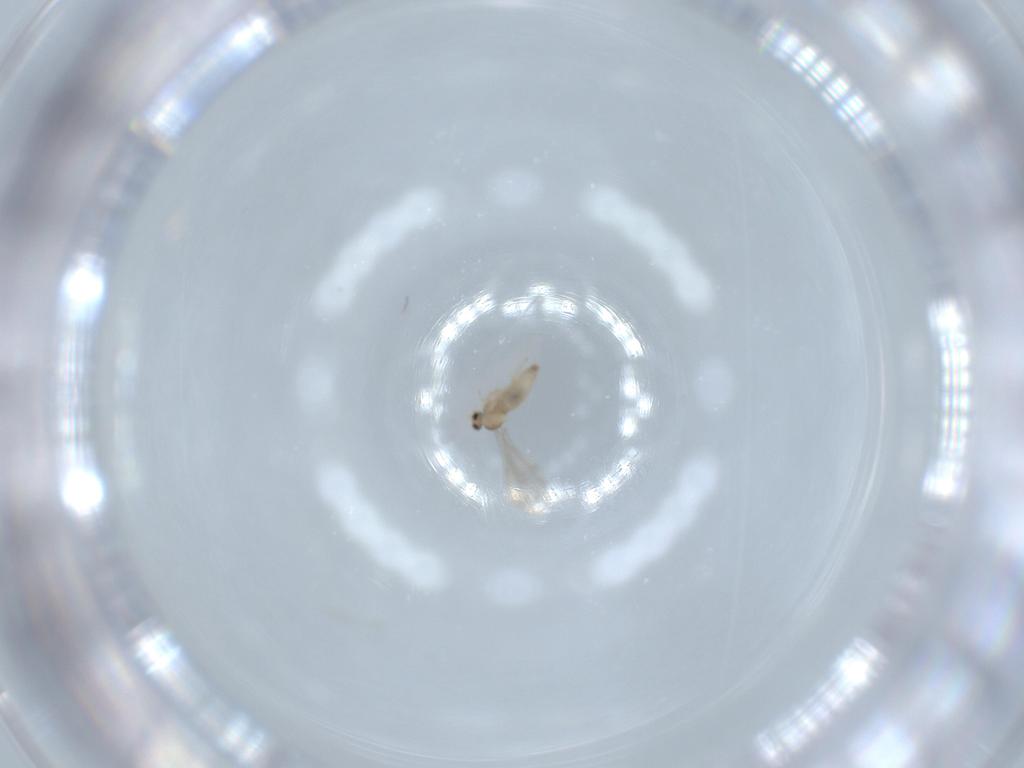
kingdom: Animalia
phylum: Arthropoda
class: Insecta
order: Diptera
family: Cecidomyiidae
